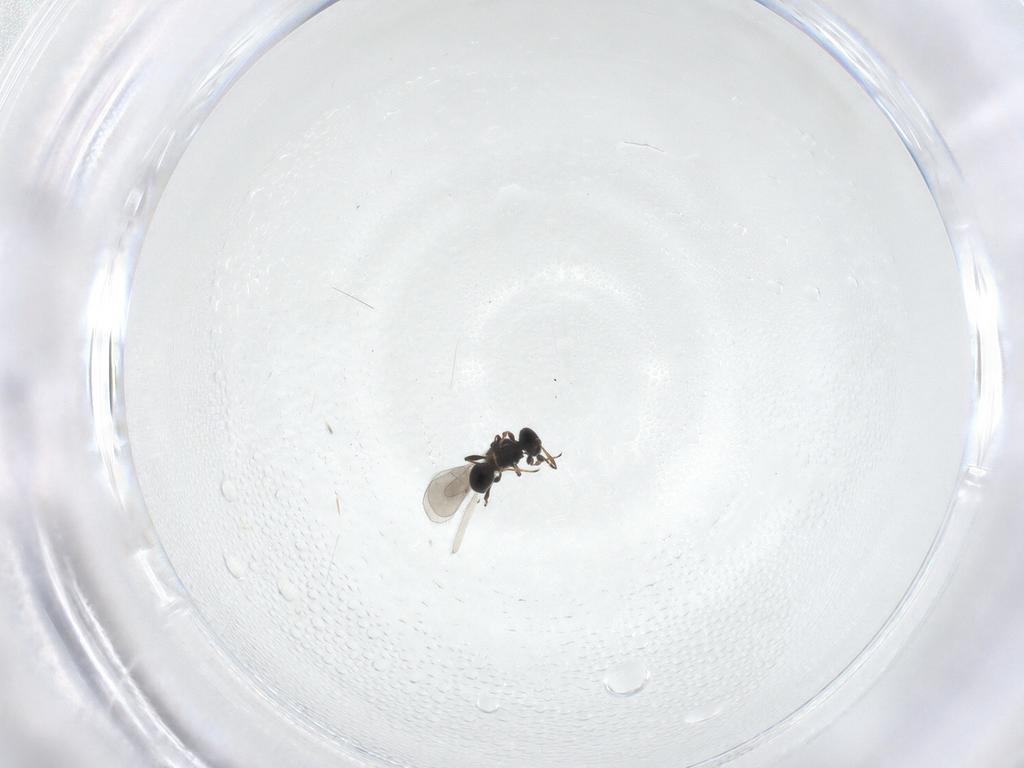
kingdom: Animalia
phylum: Arthropoda
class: Insecta
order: Hymenoptera
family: Platygastridae
